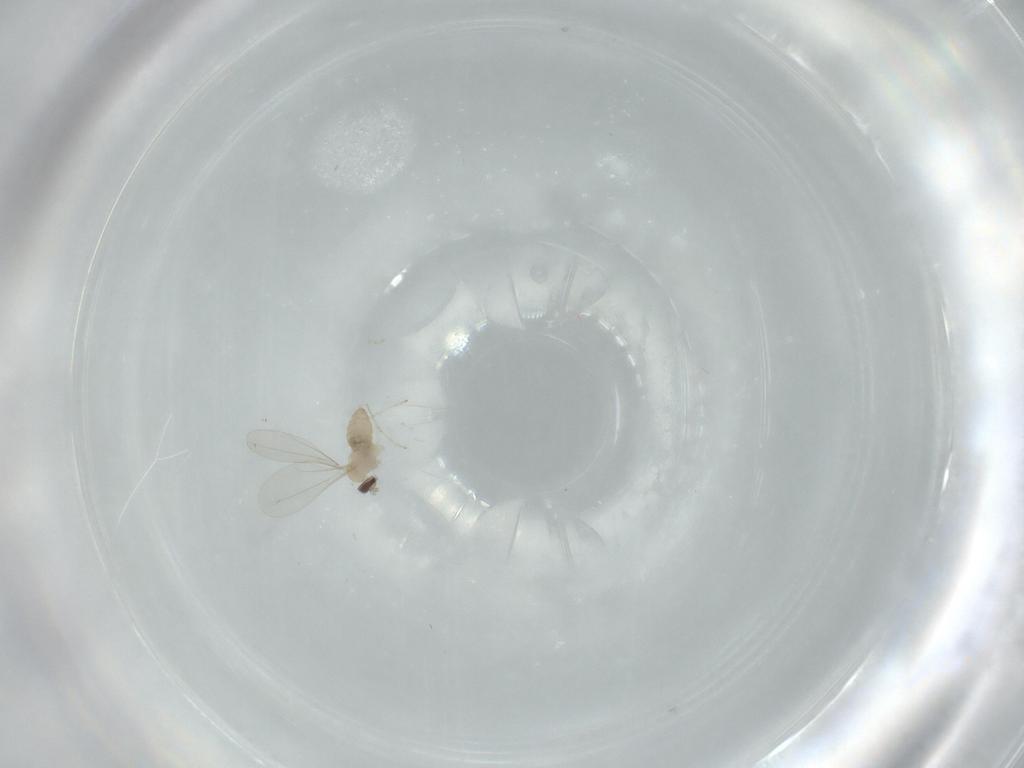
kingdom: Animalia
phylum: Arthropoda
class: Insecta
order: Diptera
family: Cecidomyiidae
